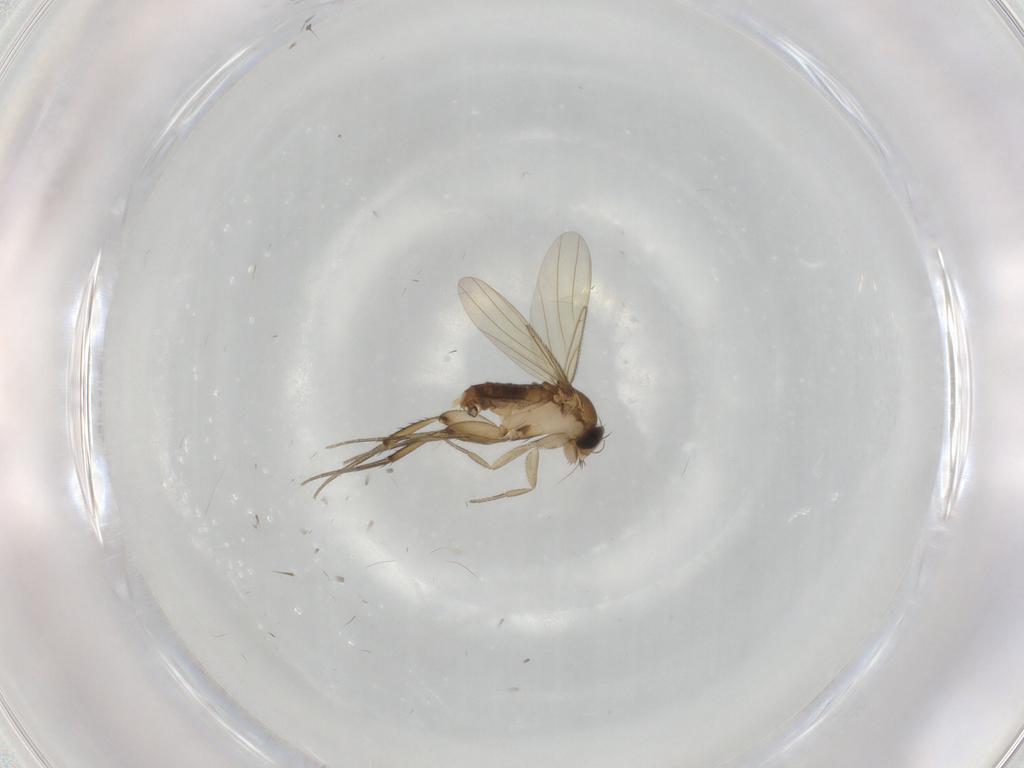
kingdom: Animalia
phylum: Arthropoda
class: Insecta
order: Diptera
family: Phoridae
